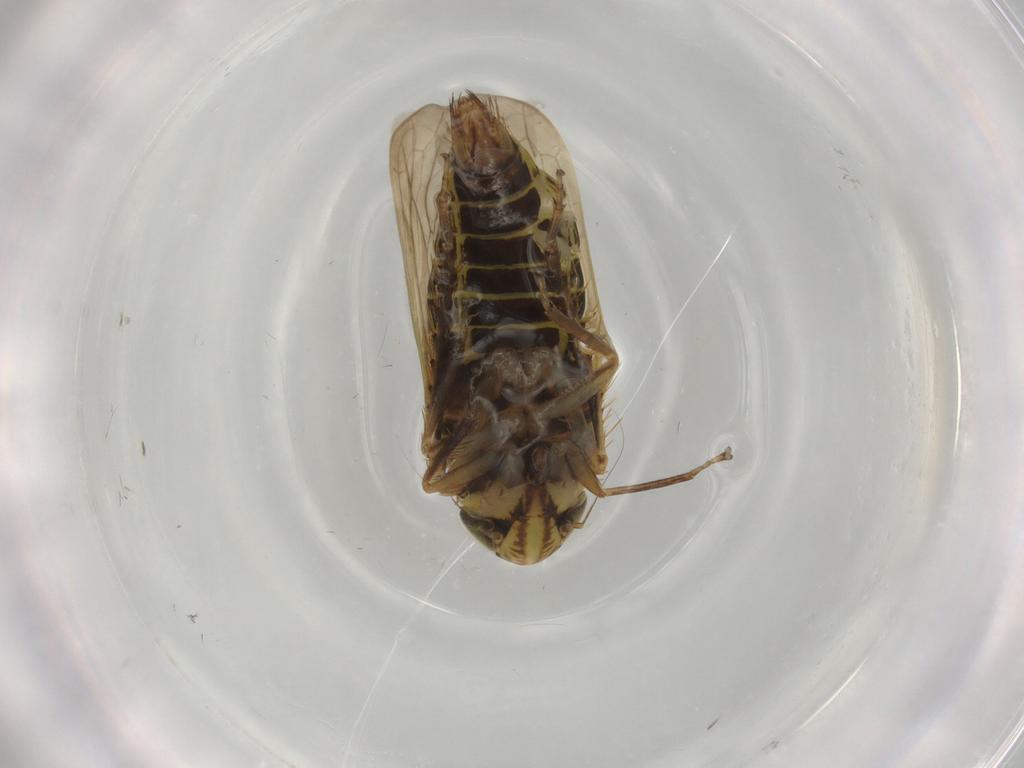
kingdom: Animalia
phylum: Arthropoda
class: Insecta
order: Hemiptera
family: Cicadellidae
